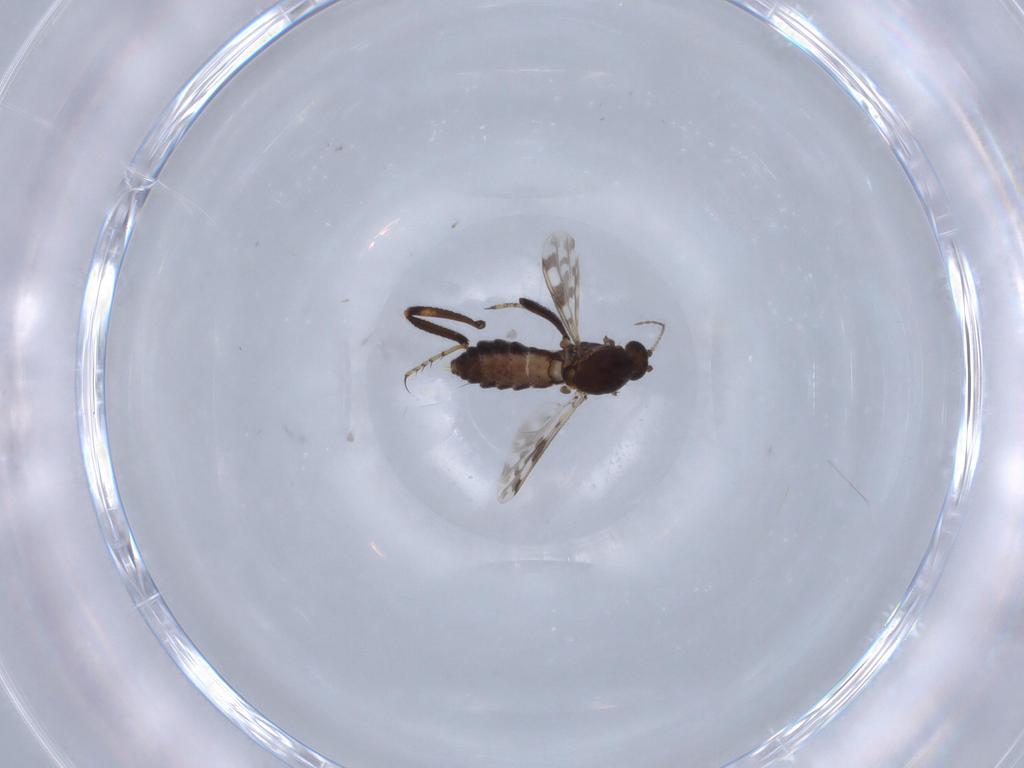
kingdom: Animalia
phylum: Arthropoda
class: Insecta
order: Diptera
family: Ceratopogonidae
